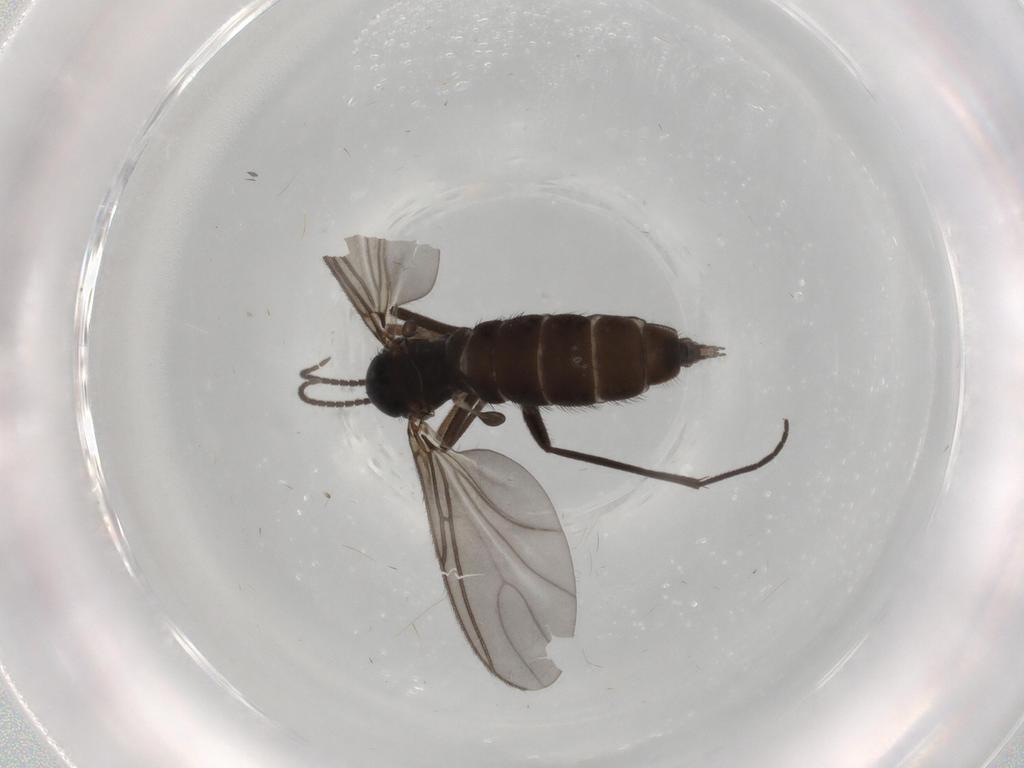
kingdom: Animalia
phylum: Arthropoda
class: Insecta
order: Diptera
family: Sciaridae
